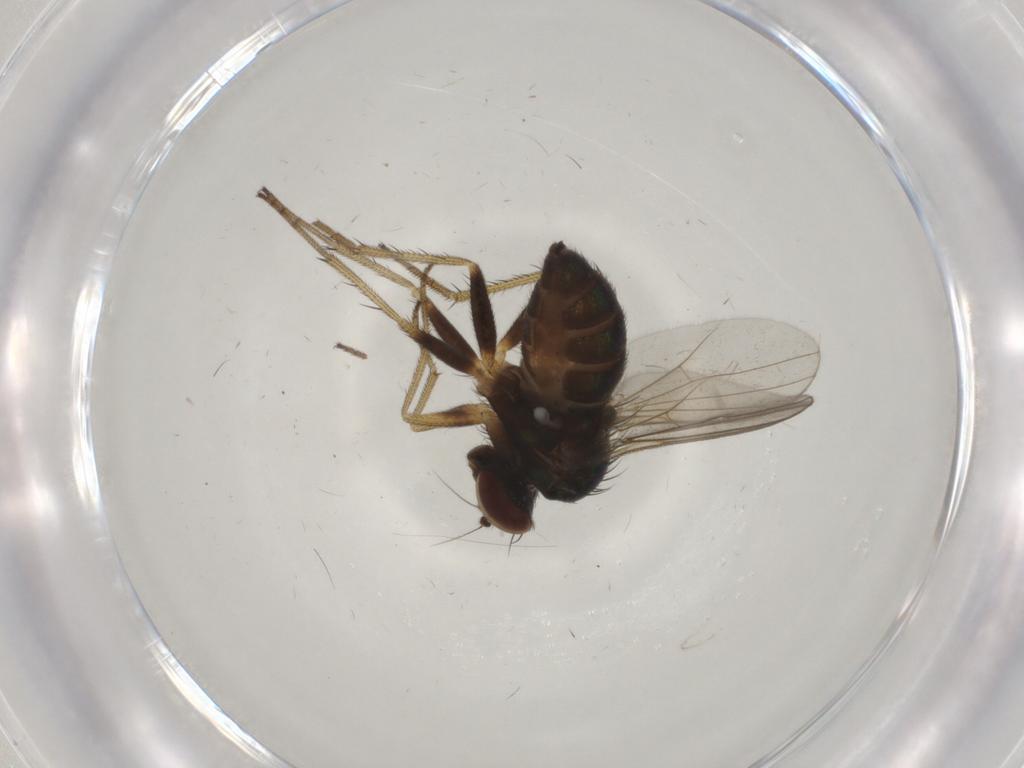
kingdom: Animalia
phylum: Arthropoda
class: Insecta
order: Diptera
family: Dolichopodidae
